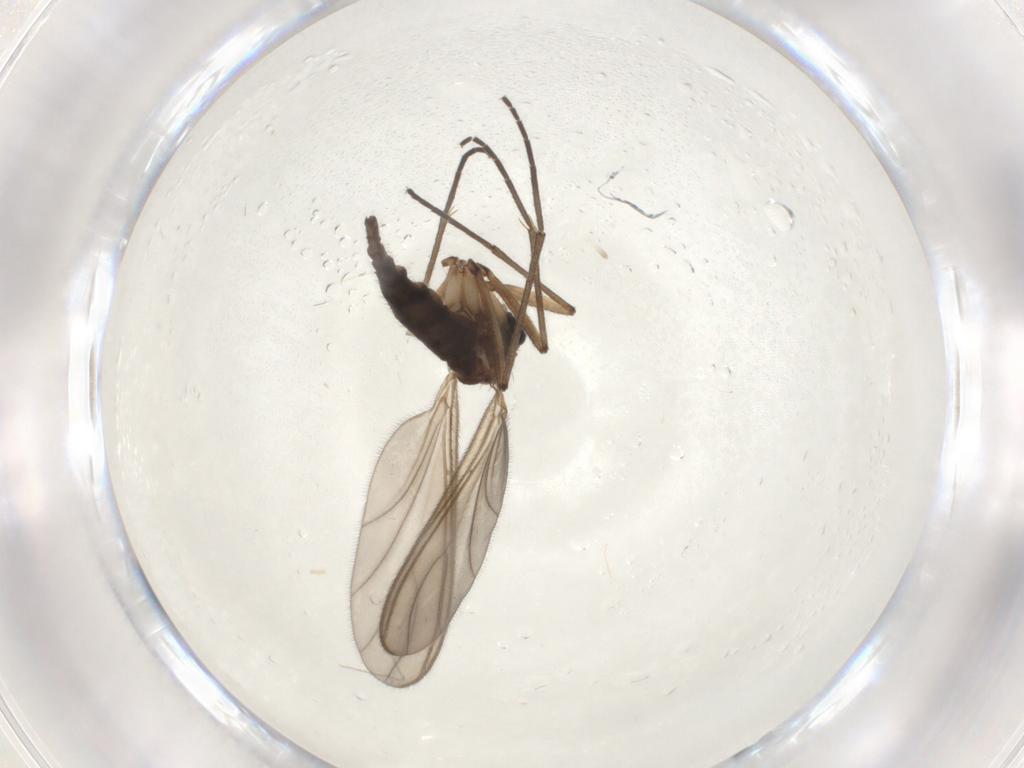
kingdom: Animalia
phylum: Arthropoda
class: Insecta
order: Diptera
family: Sciaridae
